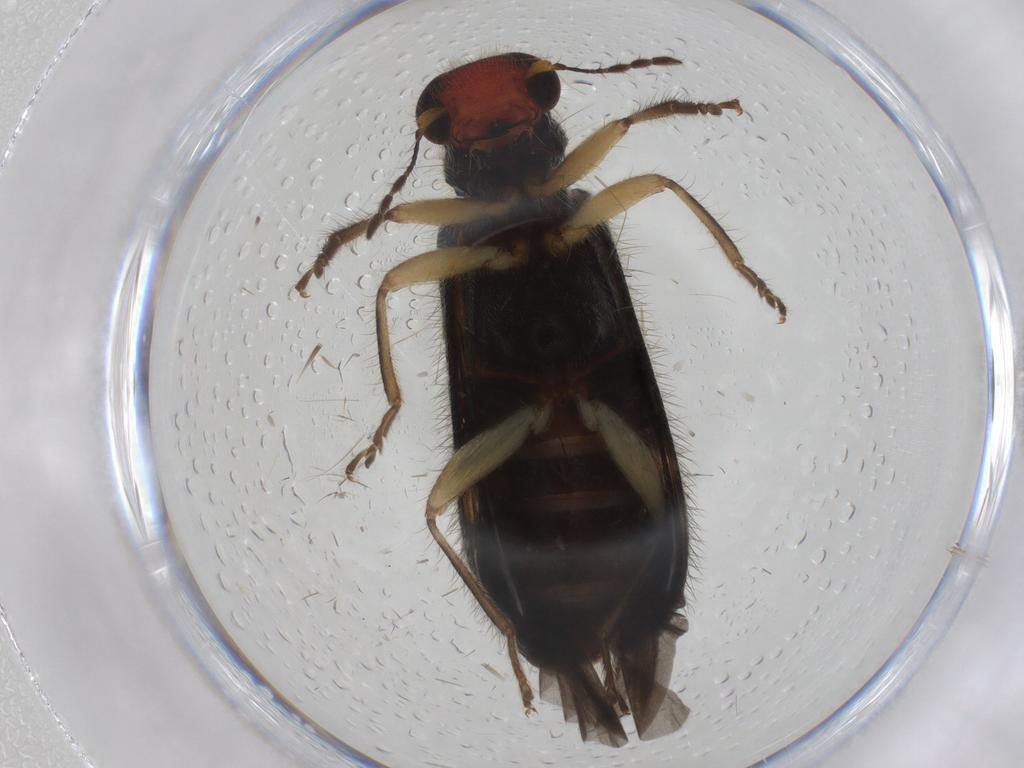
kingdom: Animalia
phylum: Arthropoda
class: Insecta
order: Coleoptera
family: Cleridae
